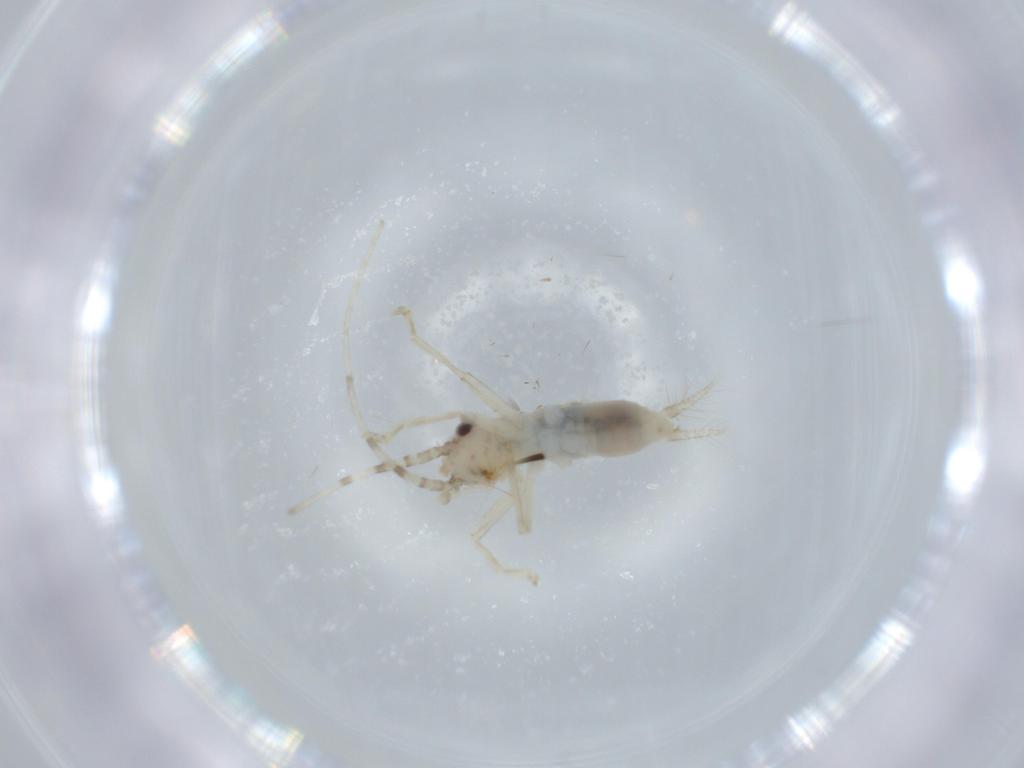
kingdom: Animalia
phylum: Arthropoda
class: Insecta
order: Orthoptera
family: Trigonidiidae
